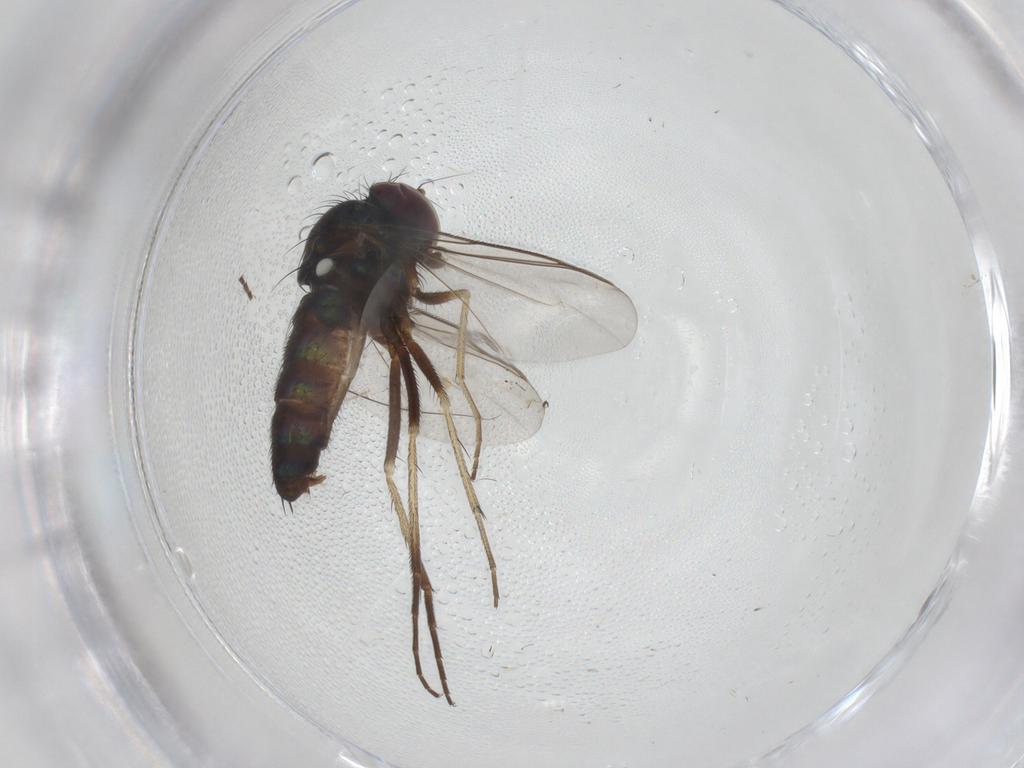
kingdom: Animalia
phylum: Arthropoda
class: Insecta
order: Diptera
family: Dolichopodidae
